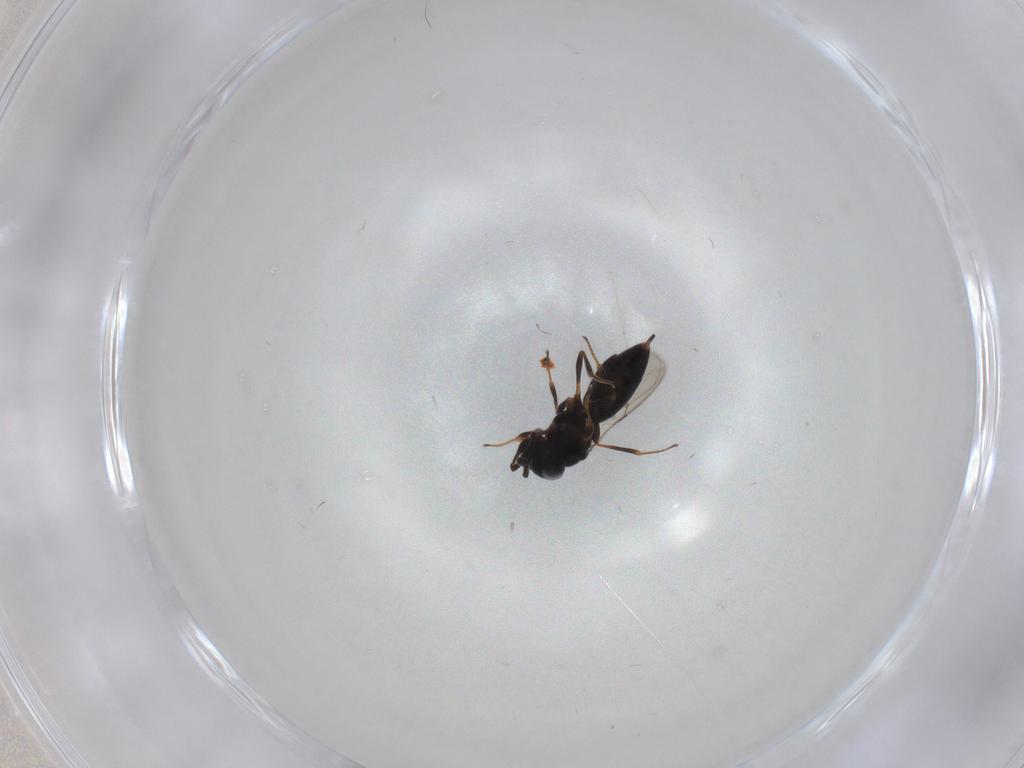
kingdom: Animalia
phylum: Arthropoda
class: Insecta
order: Hymenoptera
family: Scelionidae
